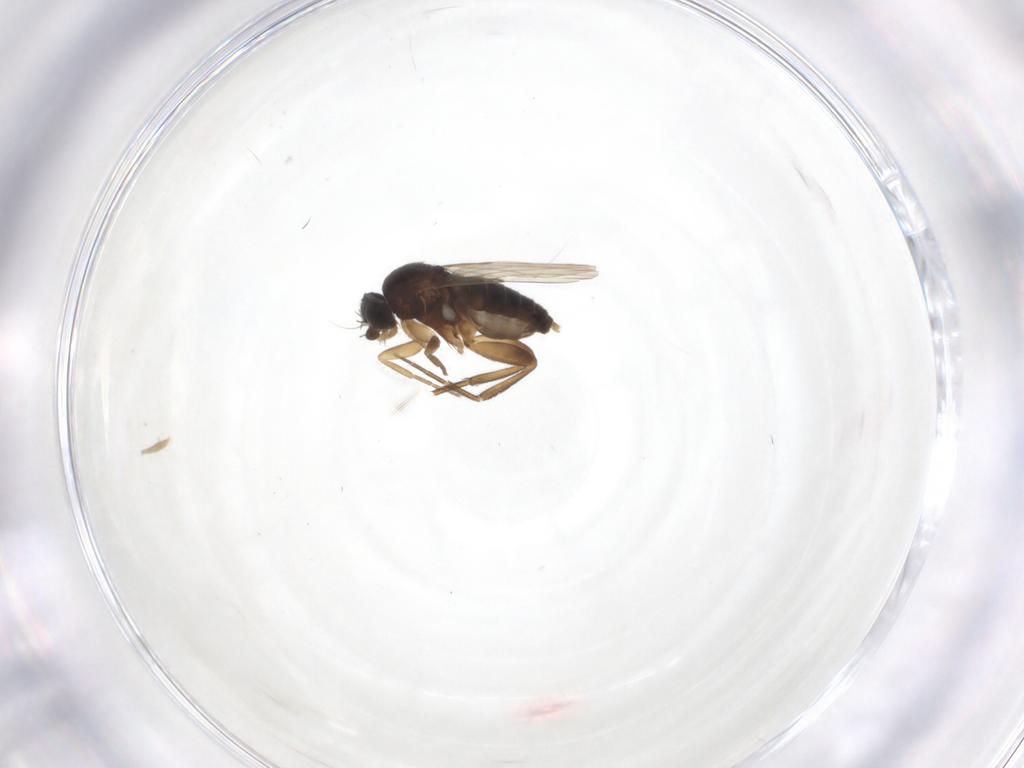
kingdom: Animalia
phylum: Arthropoda
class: Insecta
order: Diptera
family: Phoridae
